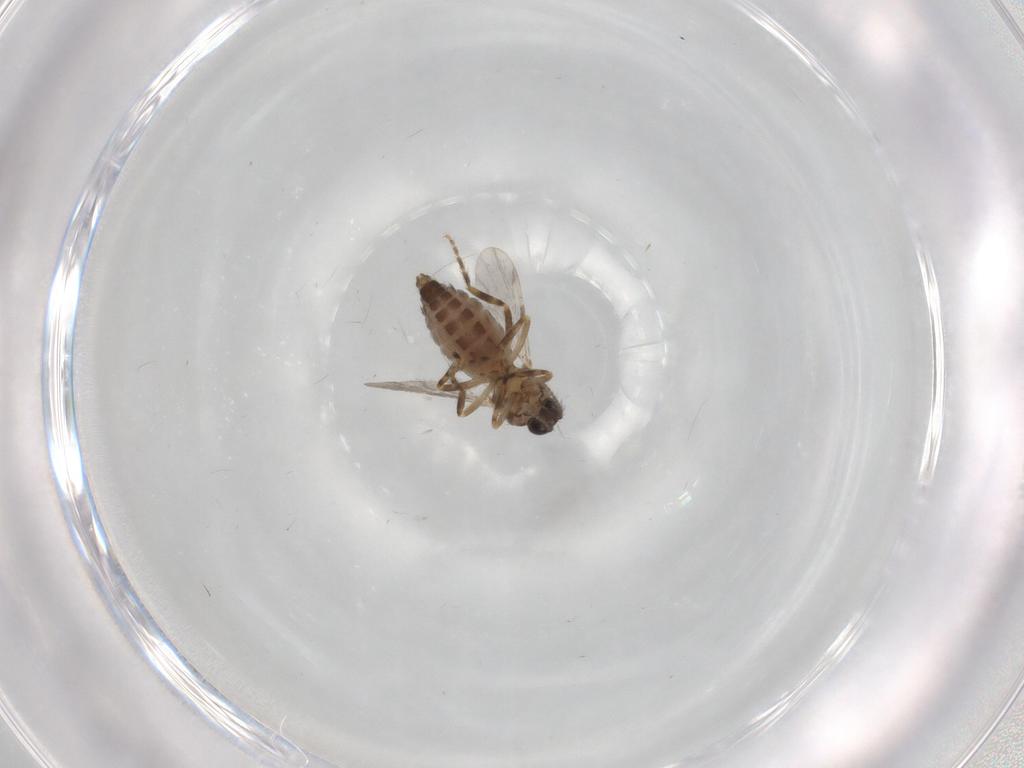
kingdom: Animalia
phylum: Arthropoda
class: Insecta
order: Diptera
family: Ceratopogonidae
